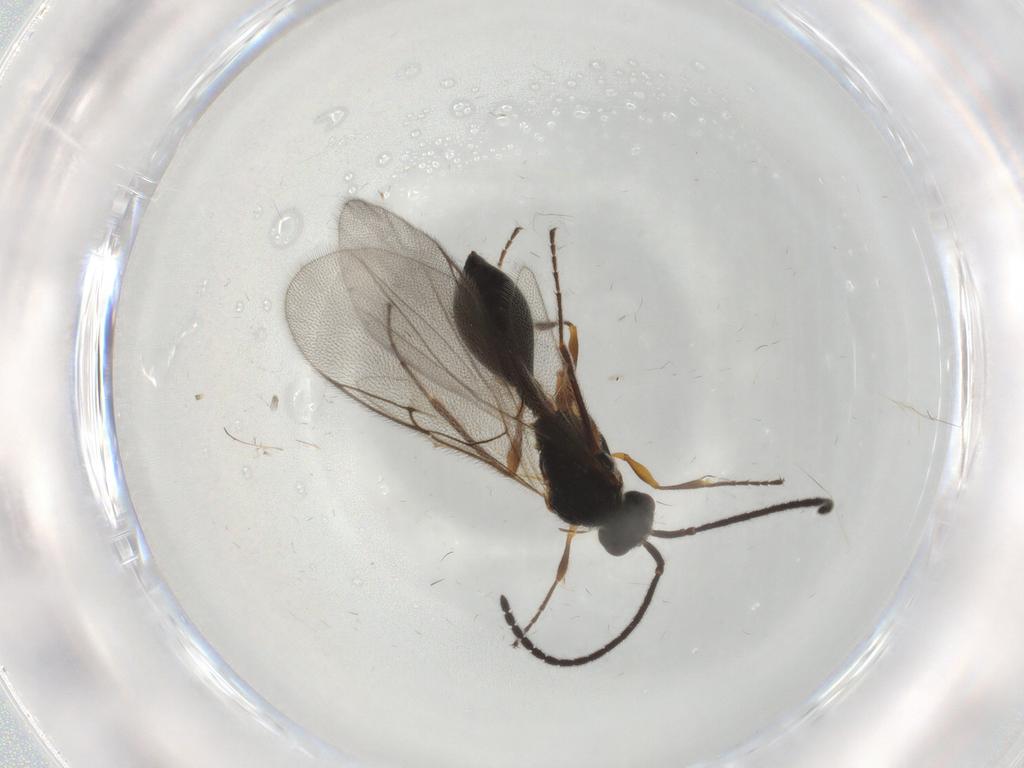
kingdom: Animalia
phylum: Arthropoda
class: Insecta
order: Hymenoptera
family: Diapriidae
